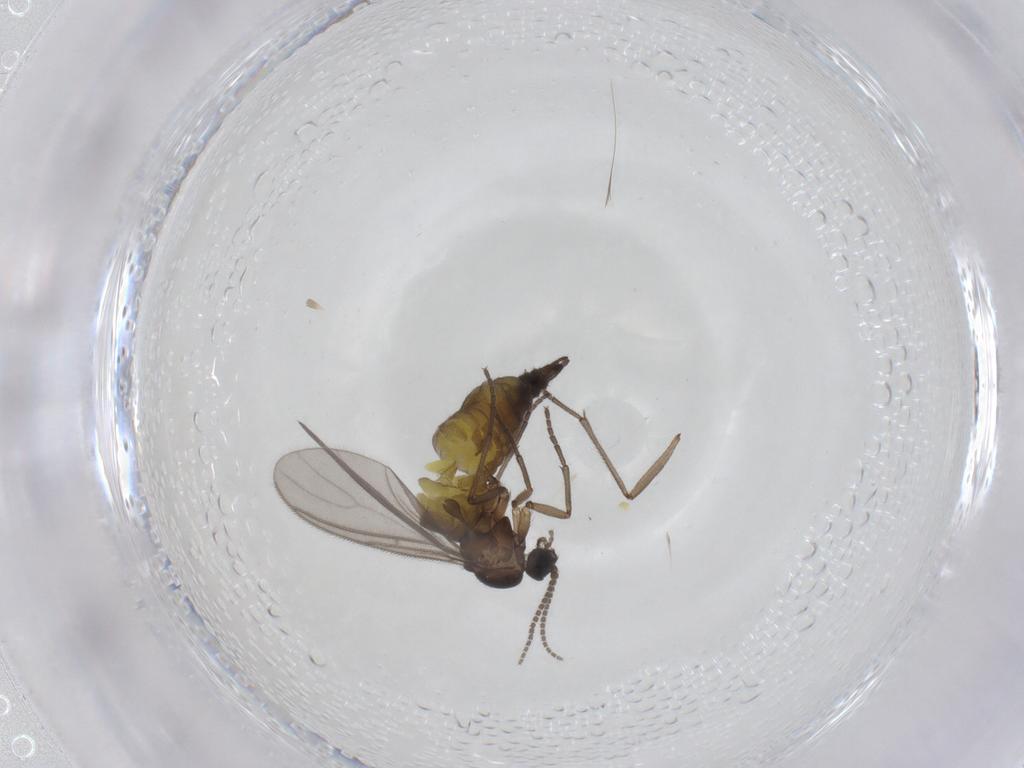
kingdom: Animalia
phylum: Arthropoda
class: Insecta
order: Diptera
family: Sciaridae
